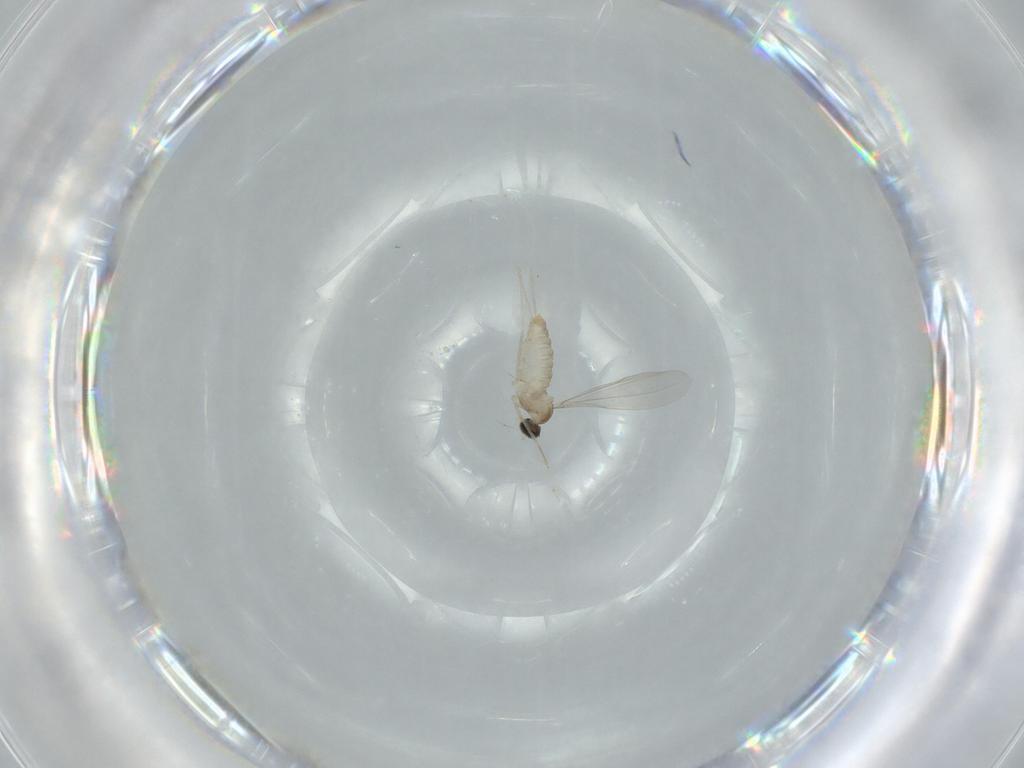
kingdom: Animalia
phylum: Arthropoda
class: Insecta
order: Diptera
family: Cecidomyiidae
